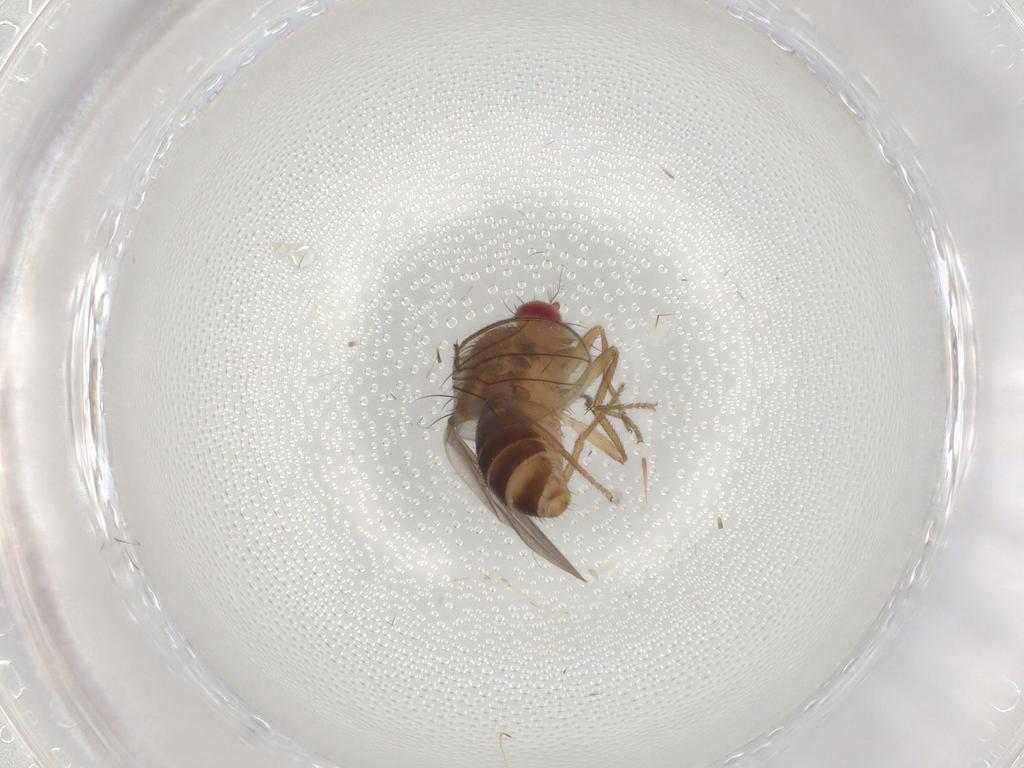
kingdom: Animalia
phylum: Arthropoda
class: Insecta
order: Diptera
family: Drosophilidae
